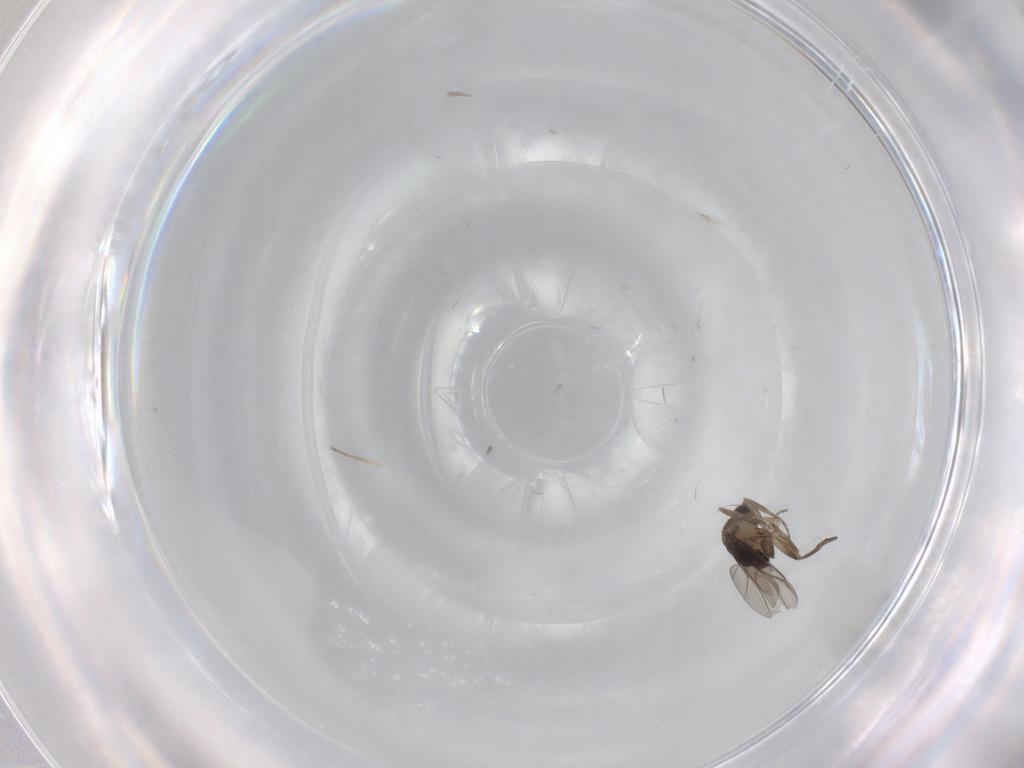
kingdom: Animalia
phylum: Arthropoda
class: Insecta
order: Diptera
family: Phoridae
